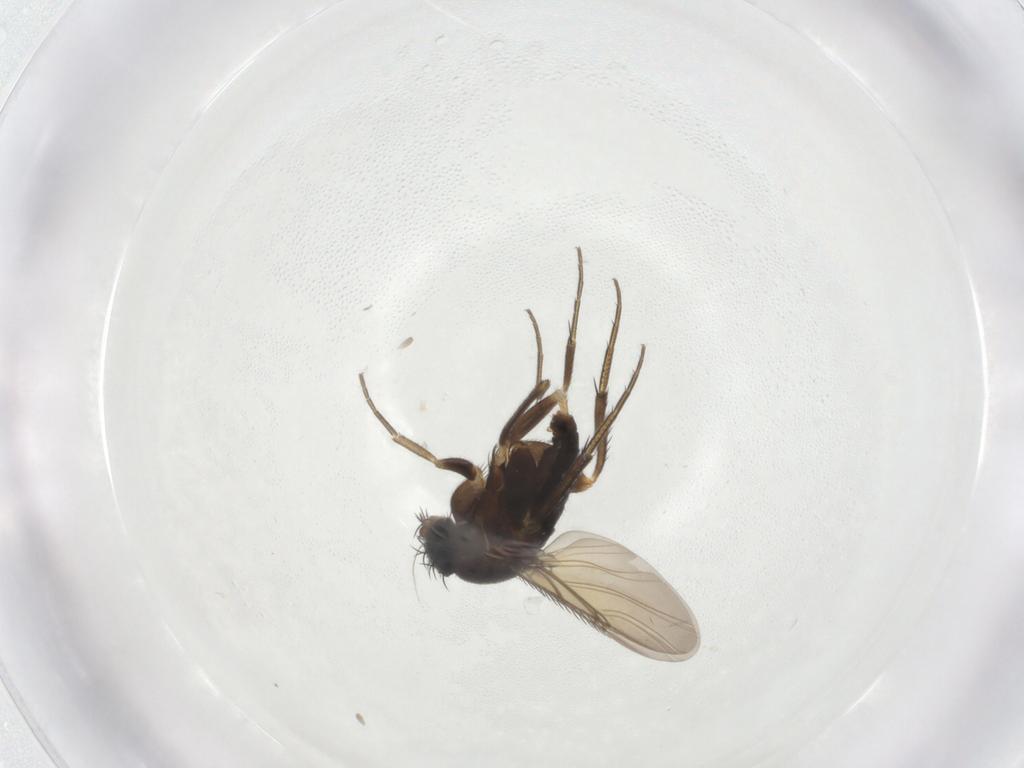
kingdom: Animalia
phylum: Arthropoda
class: Insecta
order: Diptera
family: Phoridae
